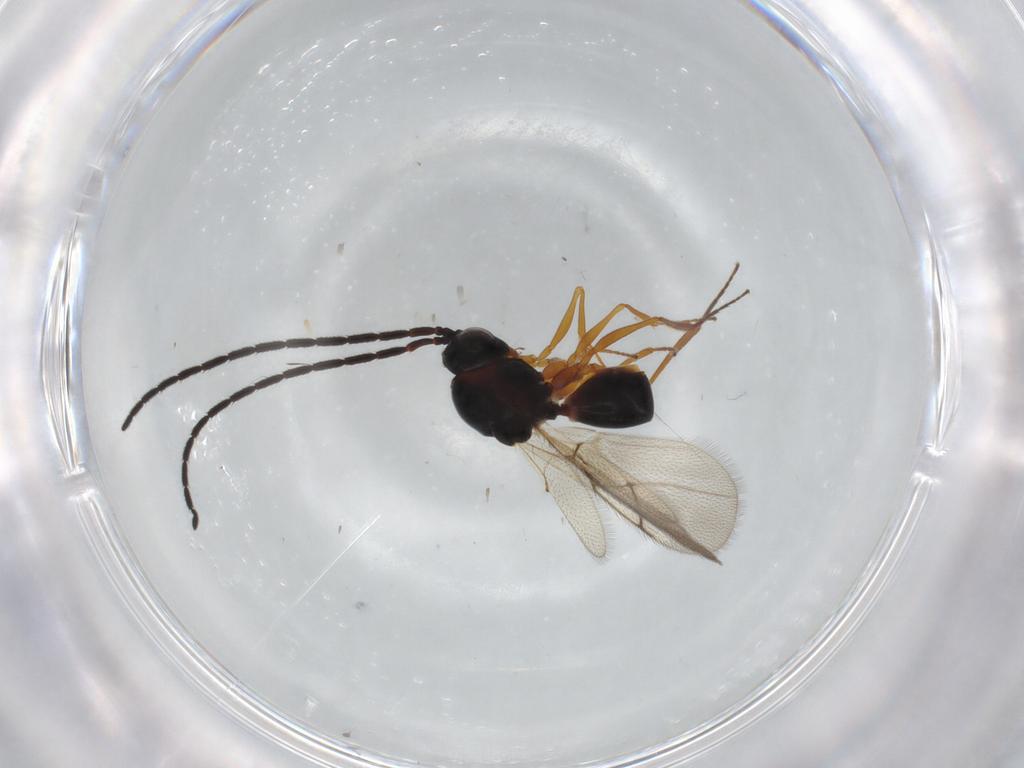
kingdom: Animalia
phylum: Arthropoda
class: Insecta
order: Hymenoptera
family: Figitidae
